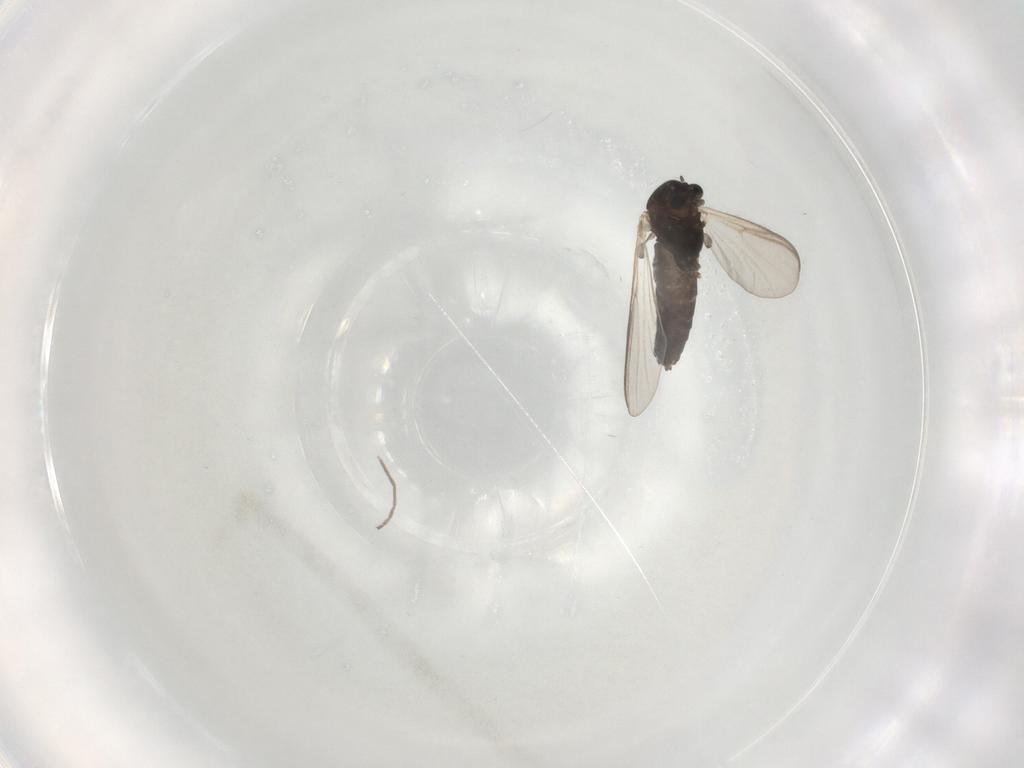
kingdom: Animalia
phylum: Arthropoda
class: Insecta
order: Diptera
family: Chironomidae
